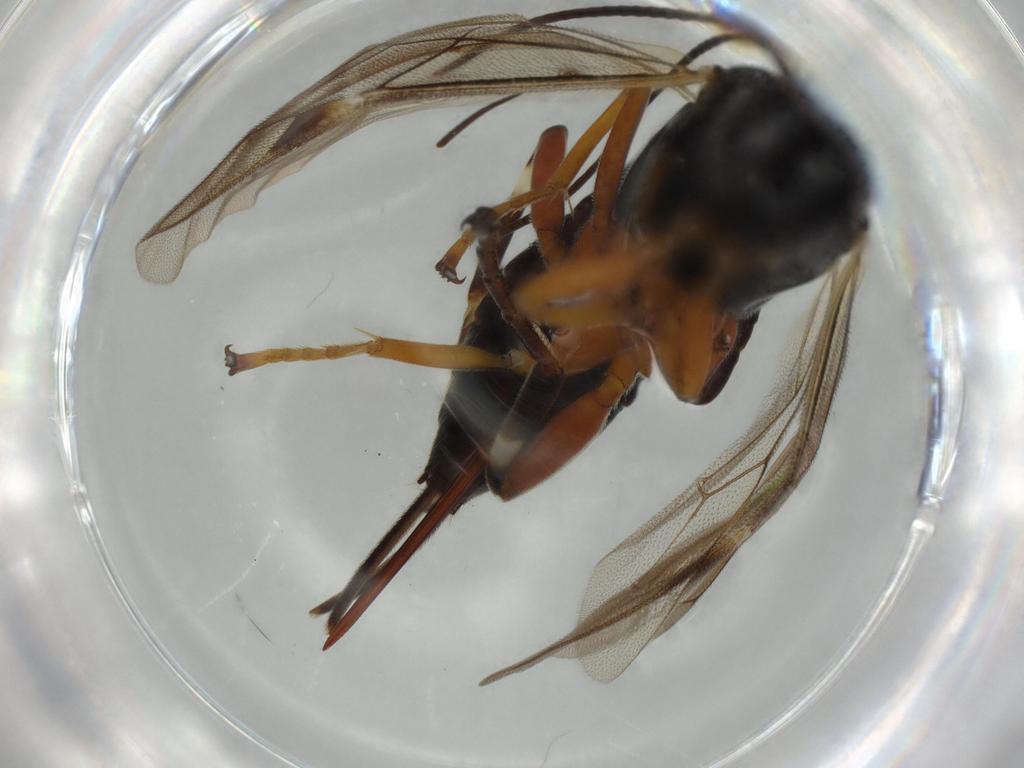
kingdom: Animalia
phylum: Arthropoda
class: Insecta
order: Hymenoptera
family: Ichneumonidae
